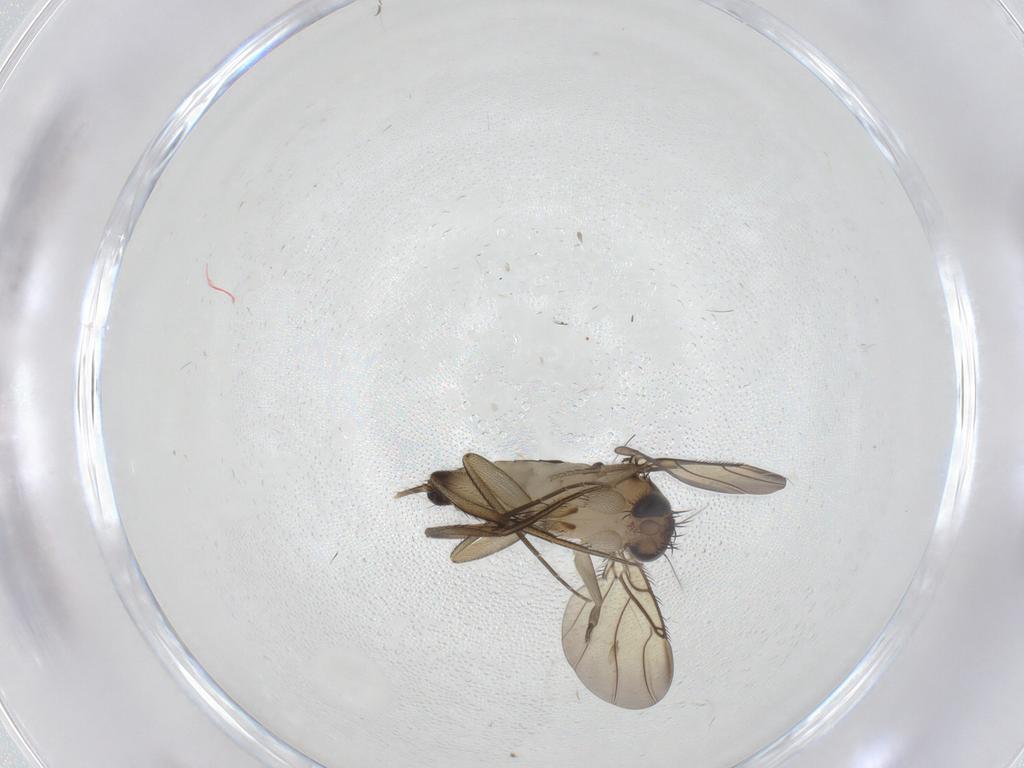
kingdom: Animalia
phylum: Arthropoda
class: Insecta
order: Diptera
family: Phoridae
